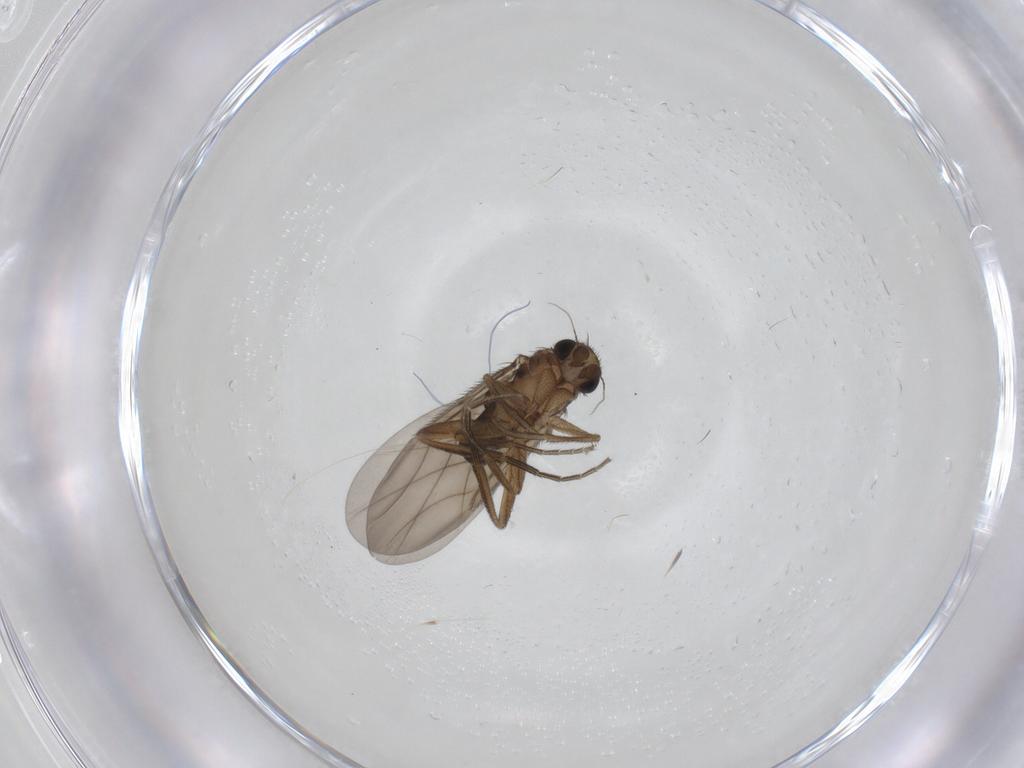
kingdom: Animalia
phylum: Arthropoda
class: Insecta
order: Diptera
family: Phoridae
